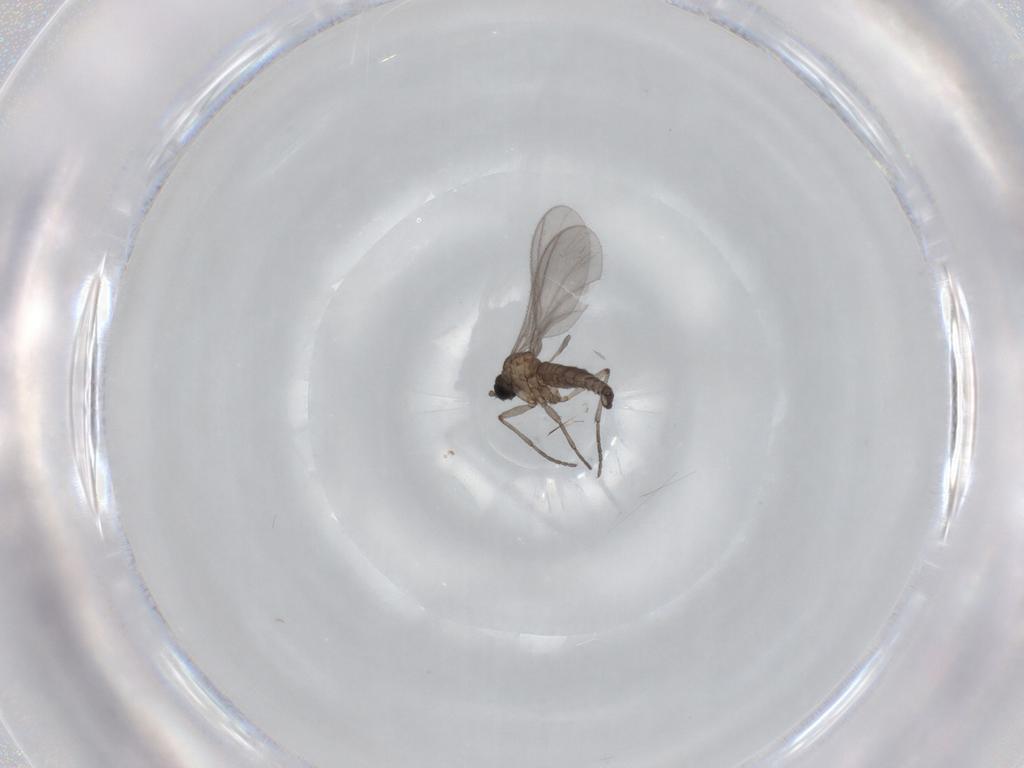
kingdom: Animalia
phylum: Arthropoda
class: Insecta
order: Diptera
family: Sciaridae
